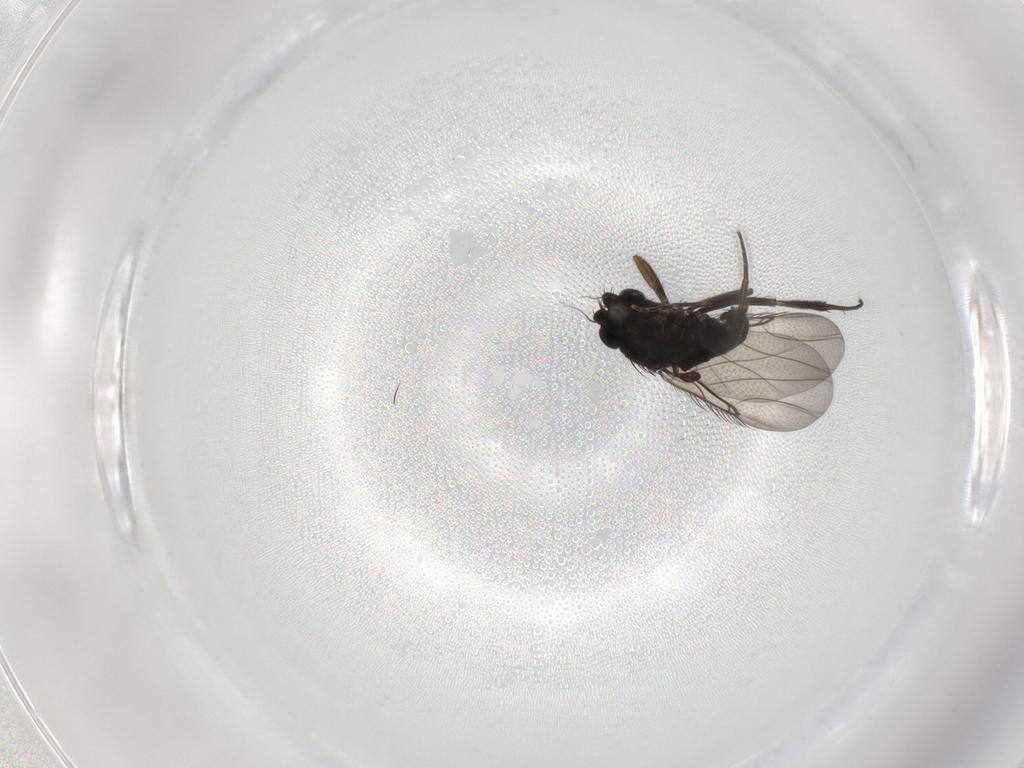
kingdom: Animalia
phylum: Arthropoda
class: Insecta
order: Diptera
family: Phoridae
